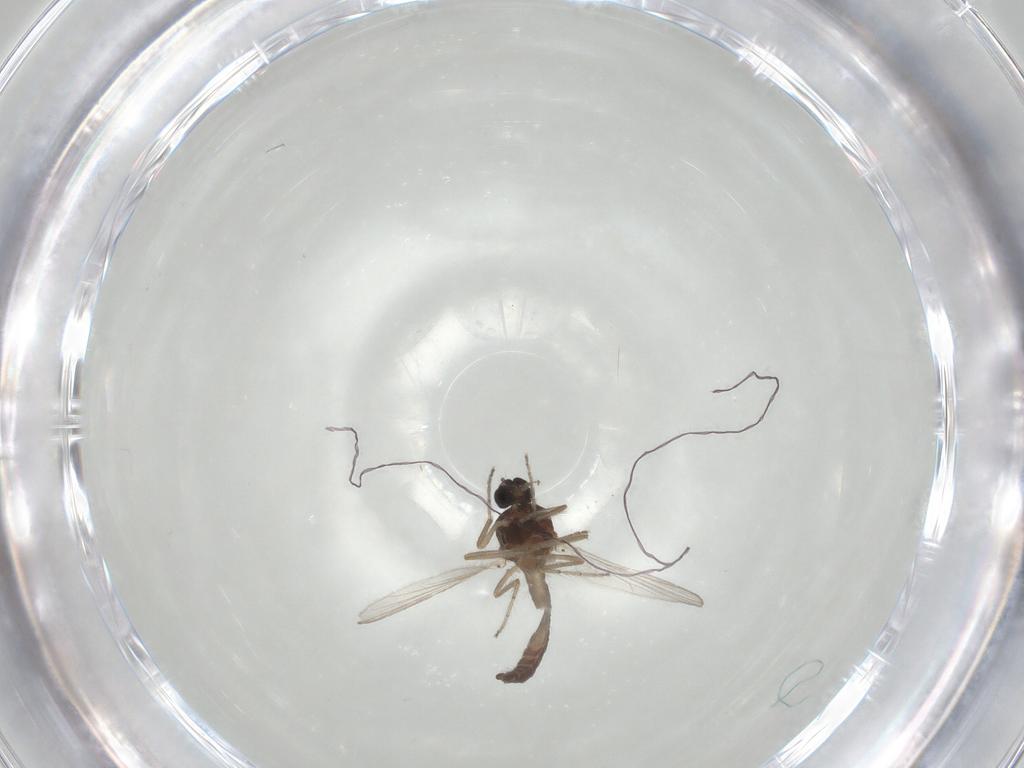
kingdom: Animalia
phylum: Arthropoda
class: Insecta
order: Diptera
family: Ceratopogonidae
